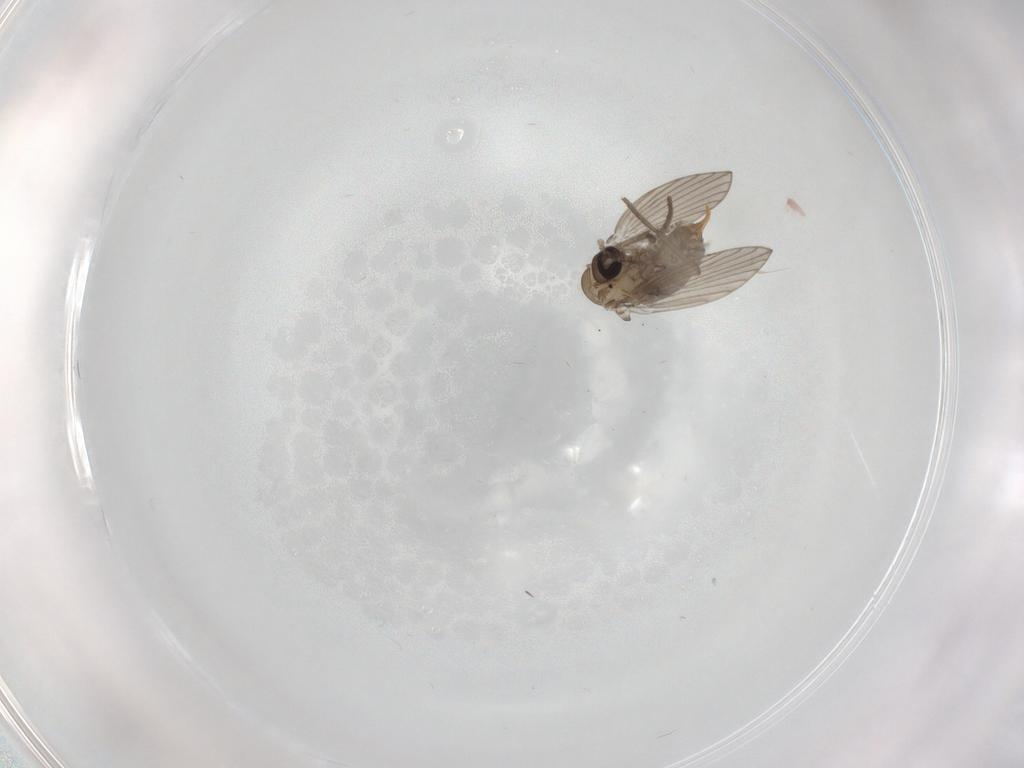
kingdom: Animalia
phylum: Arthropoda
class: Insecta
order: Diptera
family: Psychodidae
